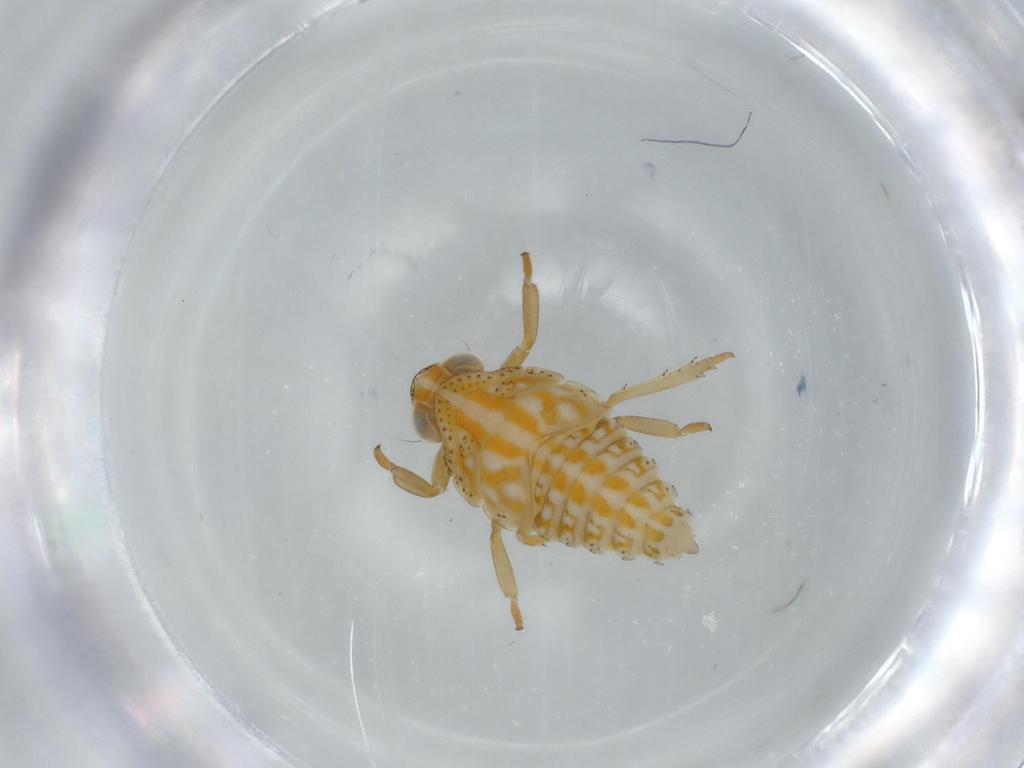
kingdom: Animalia
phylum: Arthropoda
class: Insecta
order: Hemiptera
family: Issidae
